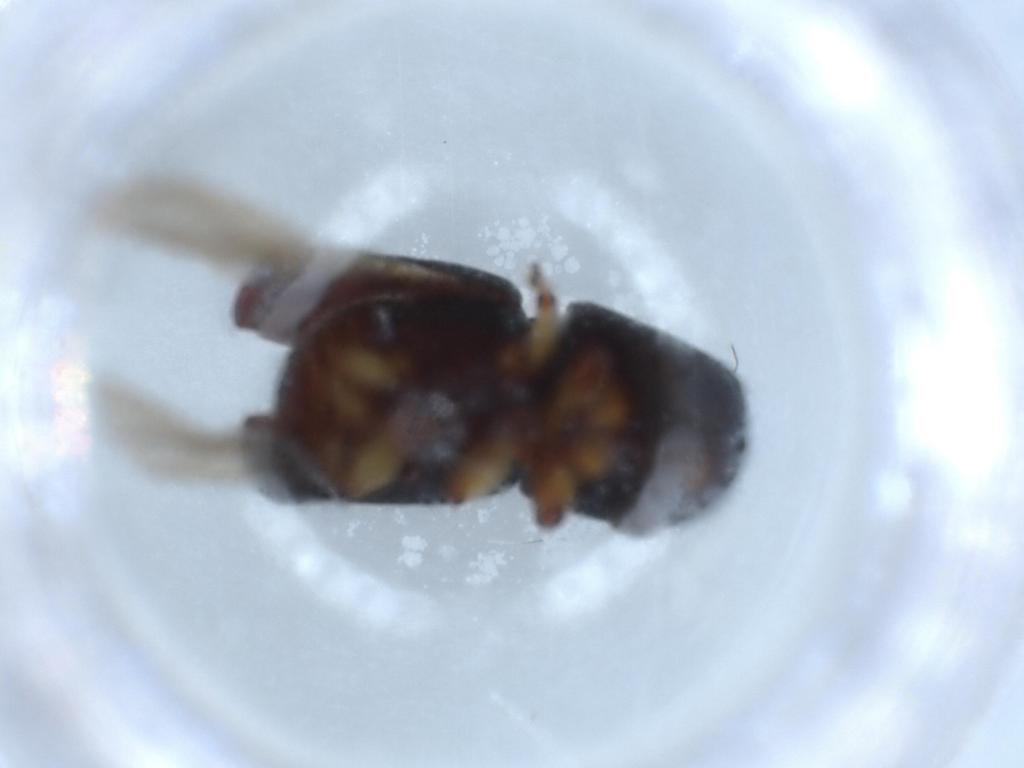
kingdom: Animalia
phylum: Arthropoda
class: Insecta
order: Coleoptera
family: Curculionidae
